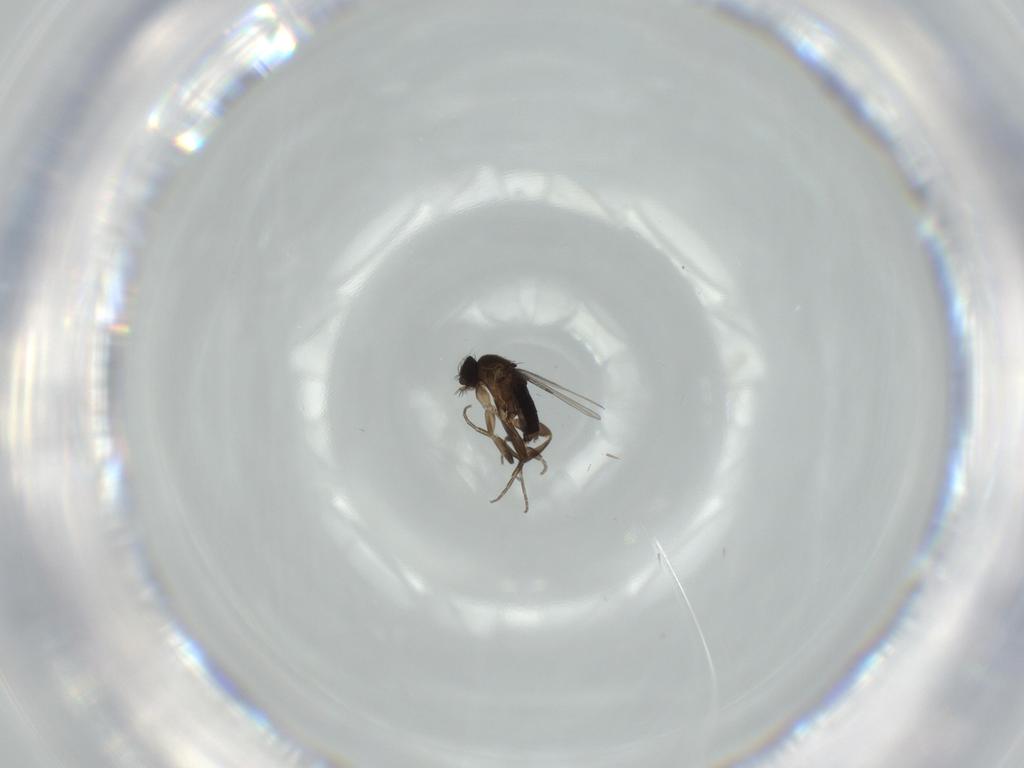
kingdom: Animalia
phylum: Arthropoda
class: Insecta
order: Diptera
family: Phoridae
